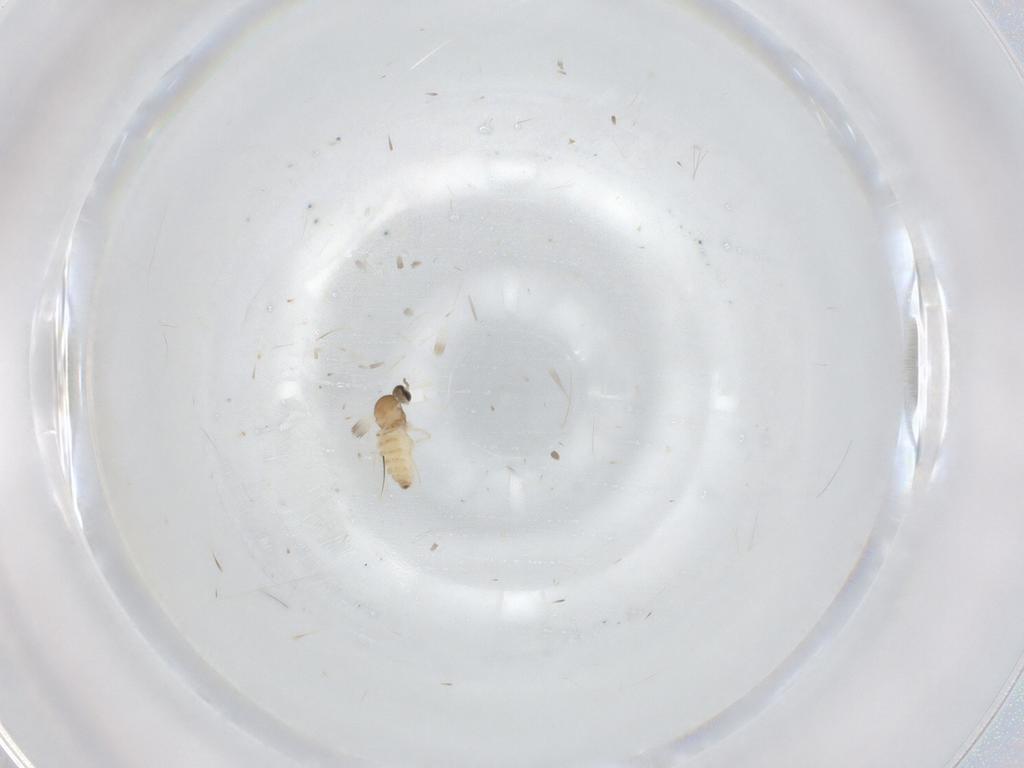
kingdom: Animalia
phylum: Arthropoda
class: Insecta
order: Diptera
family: Cecidomyiidae
